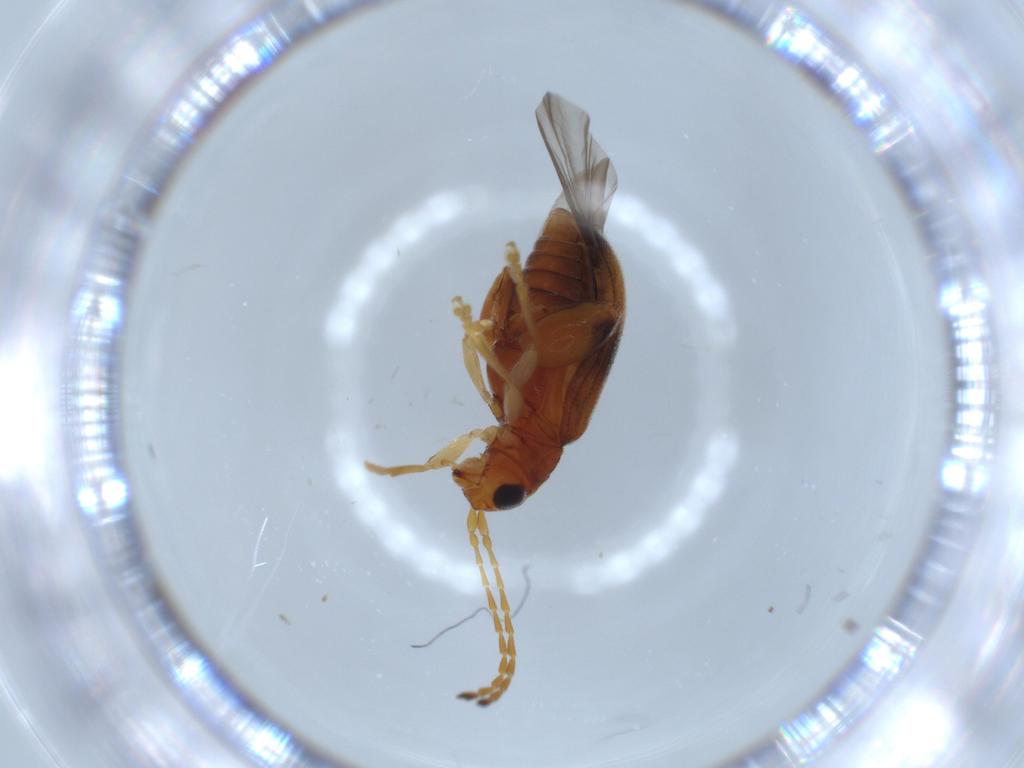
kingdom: Animalia
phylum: Arthropoda
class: Insecta
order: Coleoptera
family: Chrysomelidae
